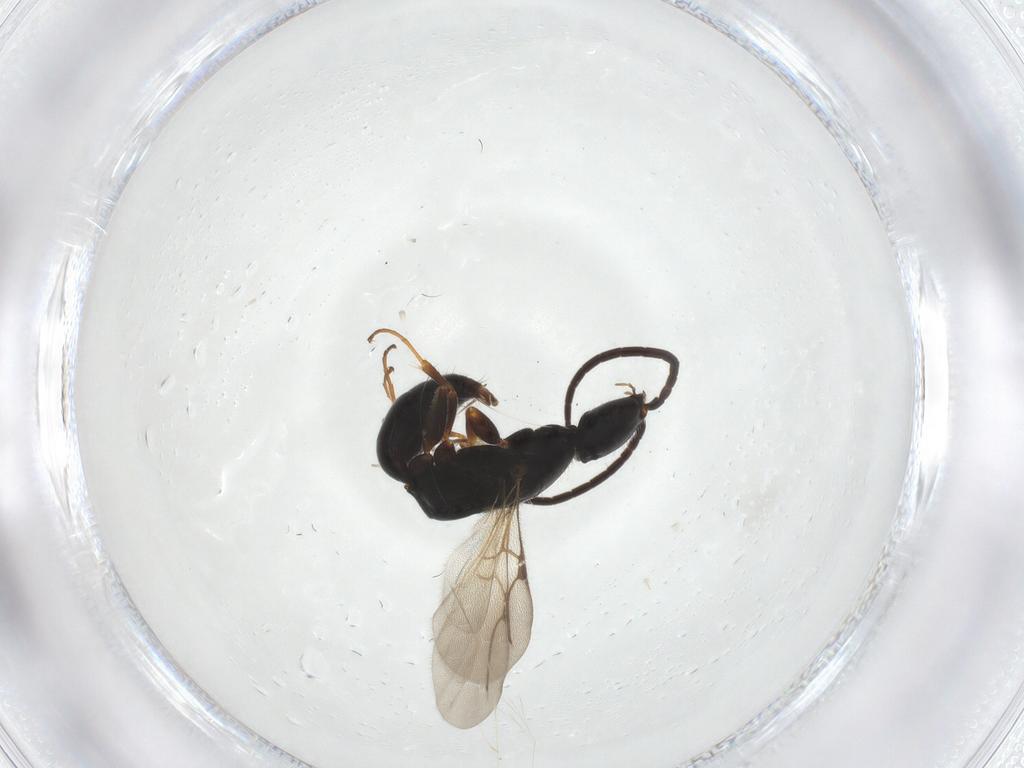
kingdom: Animalia
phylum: Arthropoda
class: Insecta
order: Hymenoptera
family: Bethylidae
